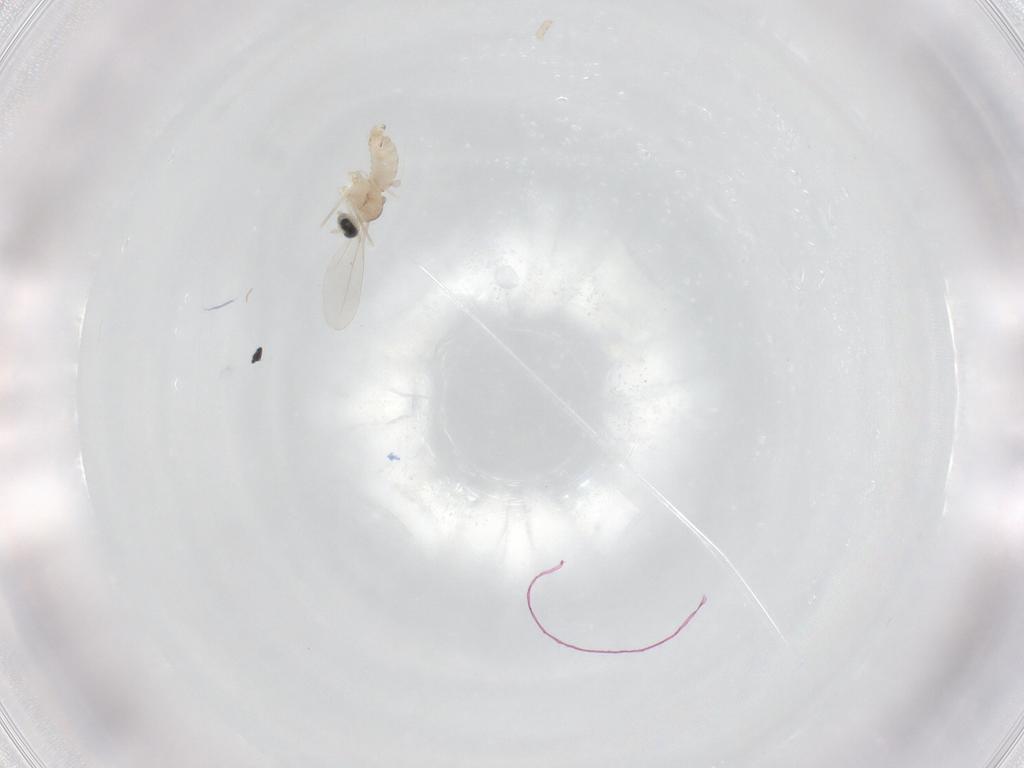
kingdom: Animalia
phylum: Arthropoda
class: Insecta
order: Diptera
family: Cecidomyiidae
